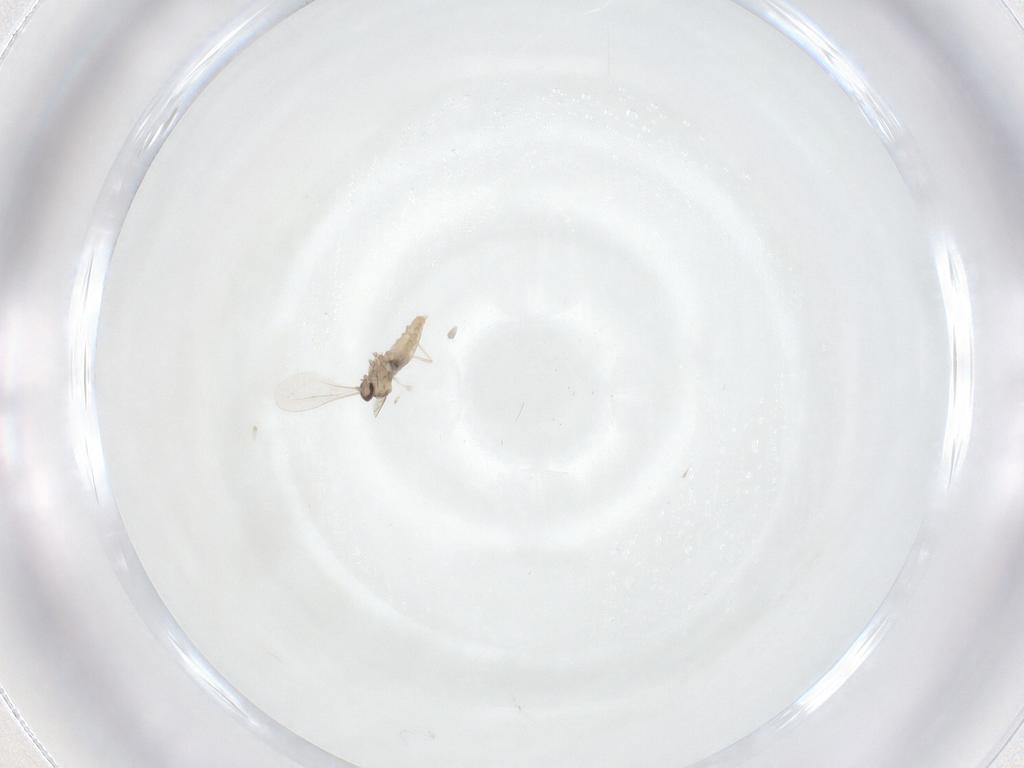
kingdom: Animalia
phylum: Arthropoda
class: Insecta
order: Diptera
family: Cecidomyiidae
